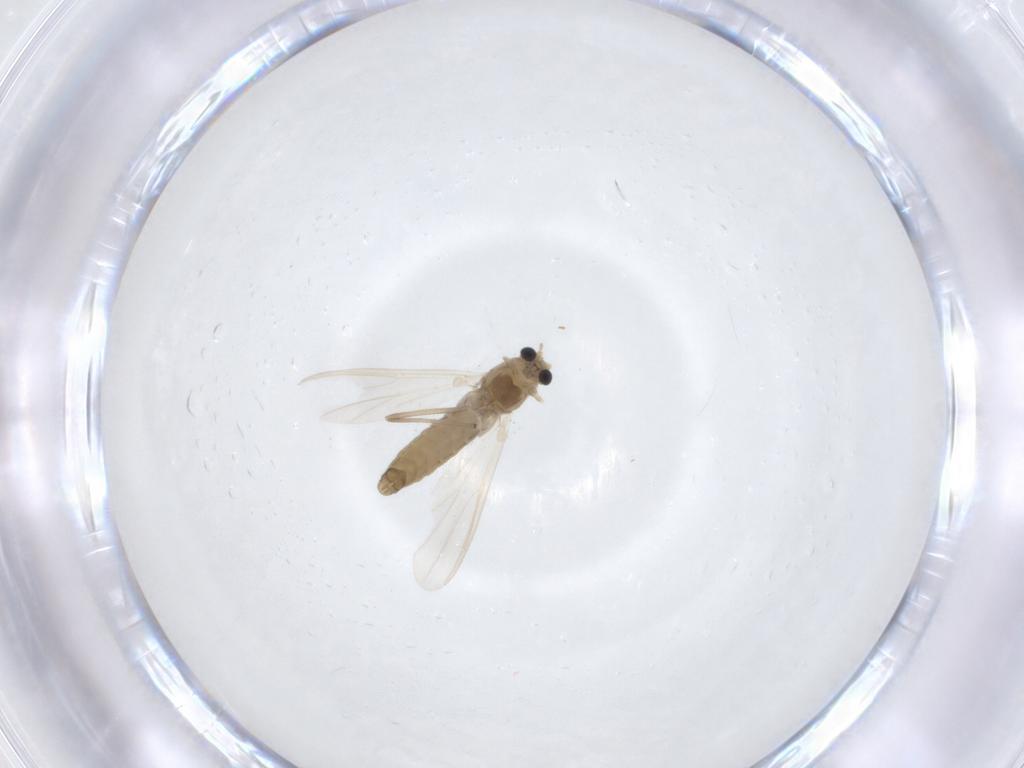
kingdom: Animalia
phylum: Arthropoda
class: Insecta
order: Diptera
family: Chironomidae
